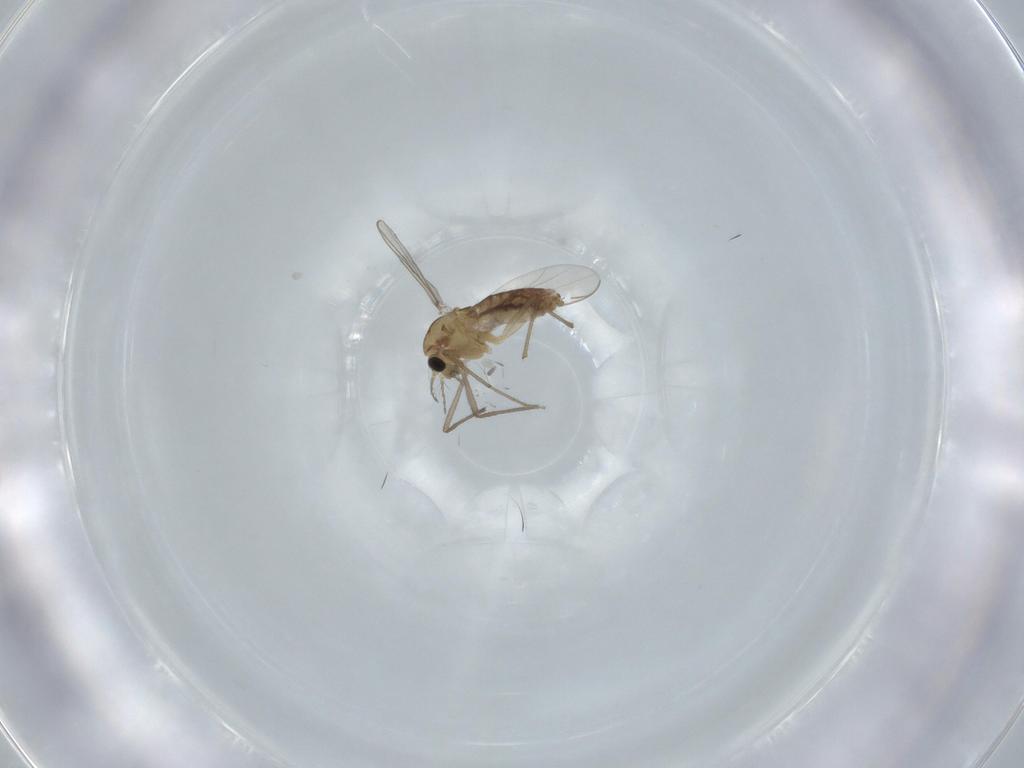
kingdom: Animalia
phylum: Arthropoda
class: Insecta
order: Diptera
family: Chironomidae
